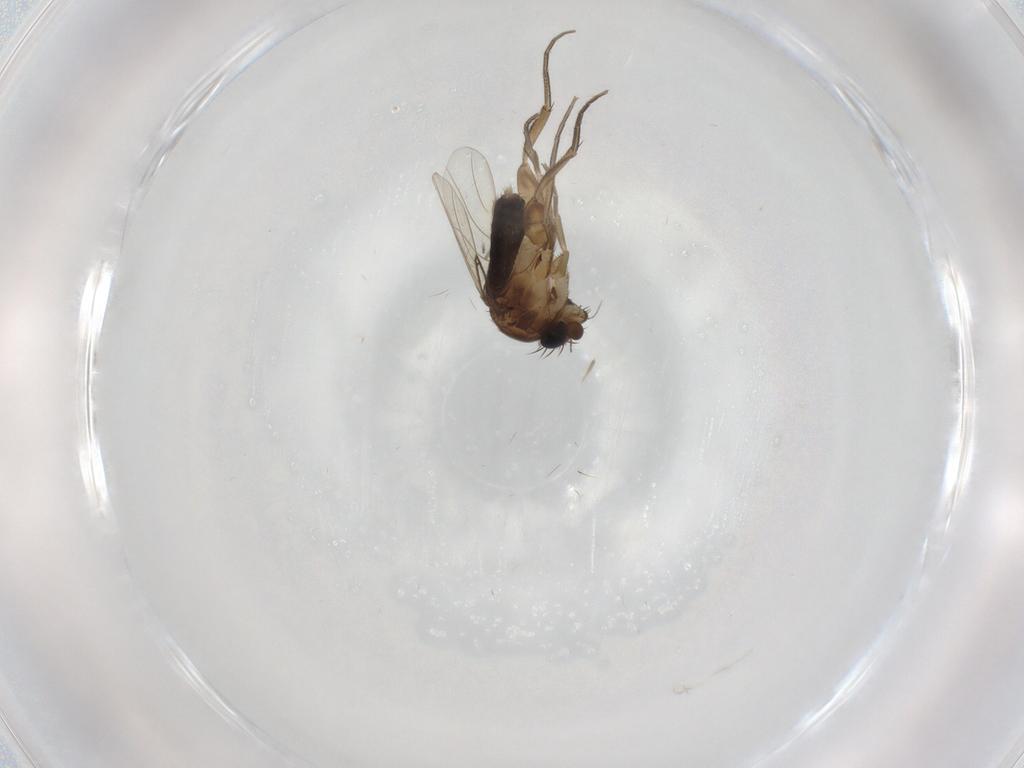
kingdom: Animalia
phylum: Arthropoda
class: Insecta
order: Diptera
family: Phoridae
